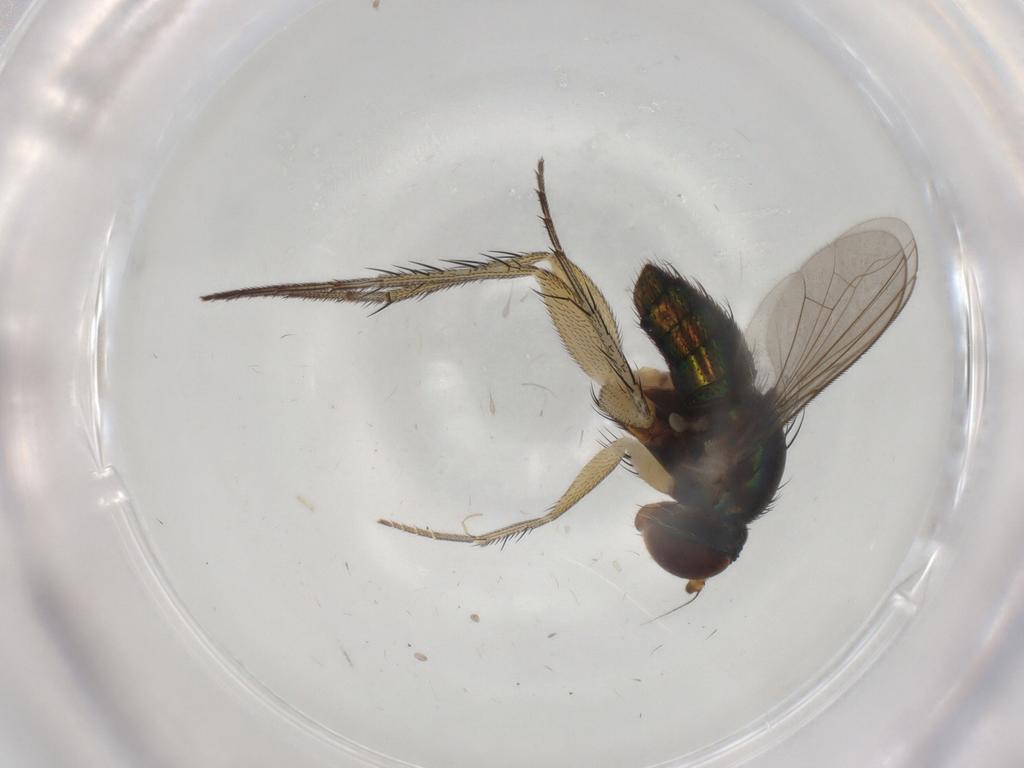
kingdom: Animalia
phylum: Arthropoda
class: Insecta
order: Diptera
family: Dolichopodidae
